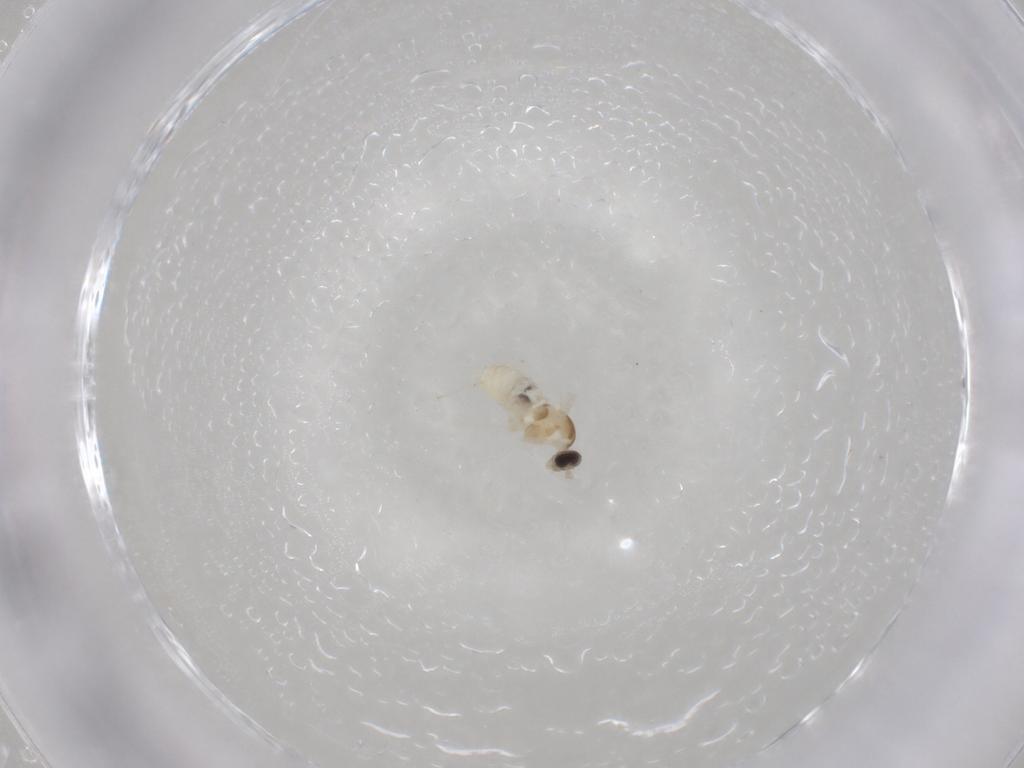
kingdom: Animalia
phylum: Arthropoda
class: Insecta
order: Diptera
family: Cecidomyiidae
